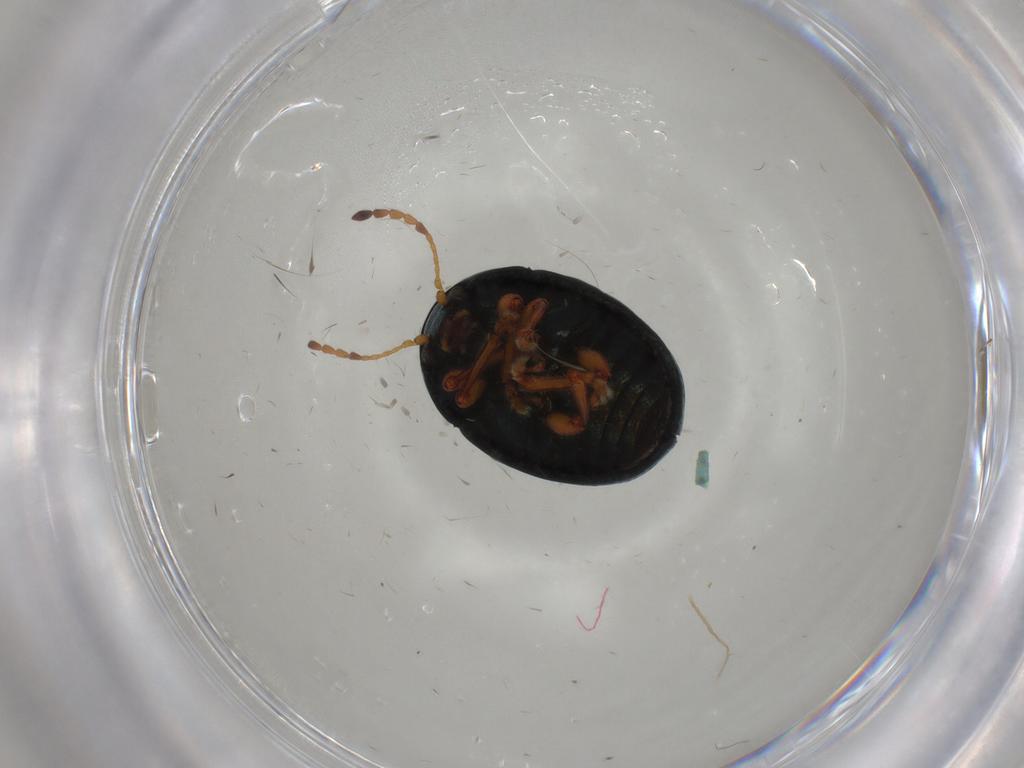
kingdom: Animalia
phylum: Arthropoda
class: Insecta
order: Coleoptera
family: Chrysomelidae
